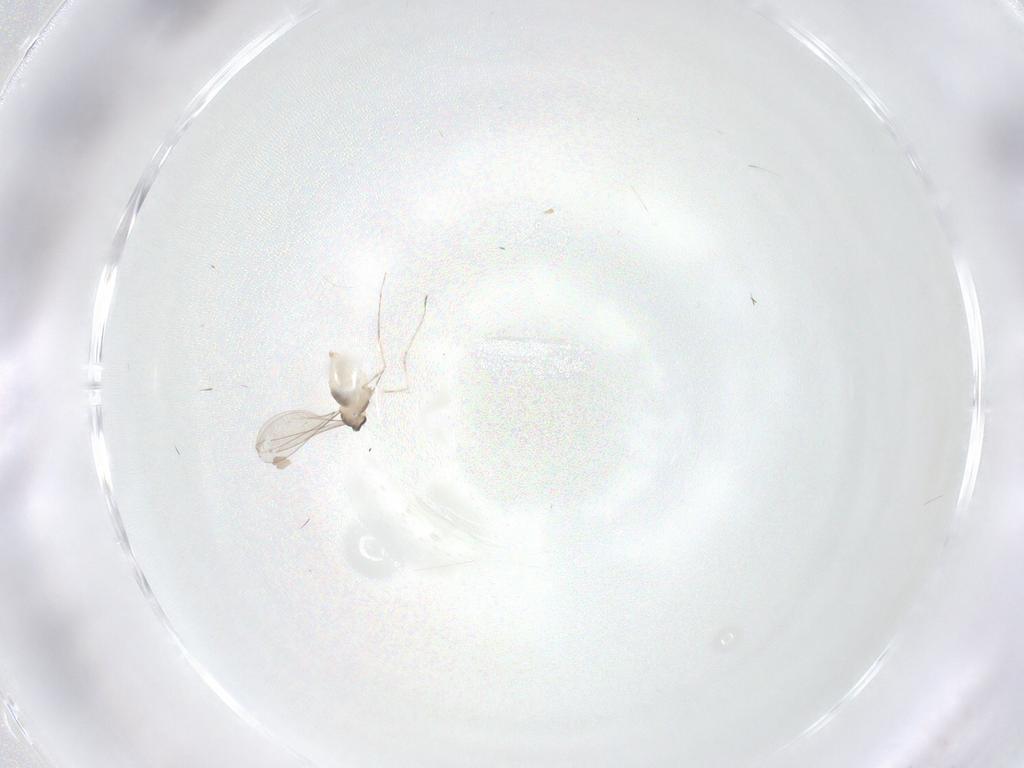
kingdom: Animalia
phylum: Arthropoda
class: Insecta
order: Diptera
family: Cecidomyiidae
